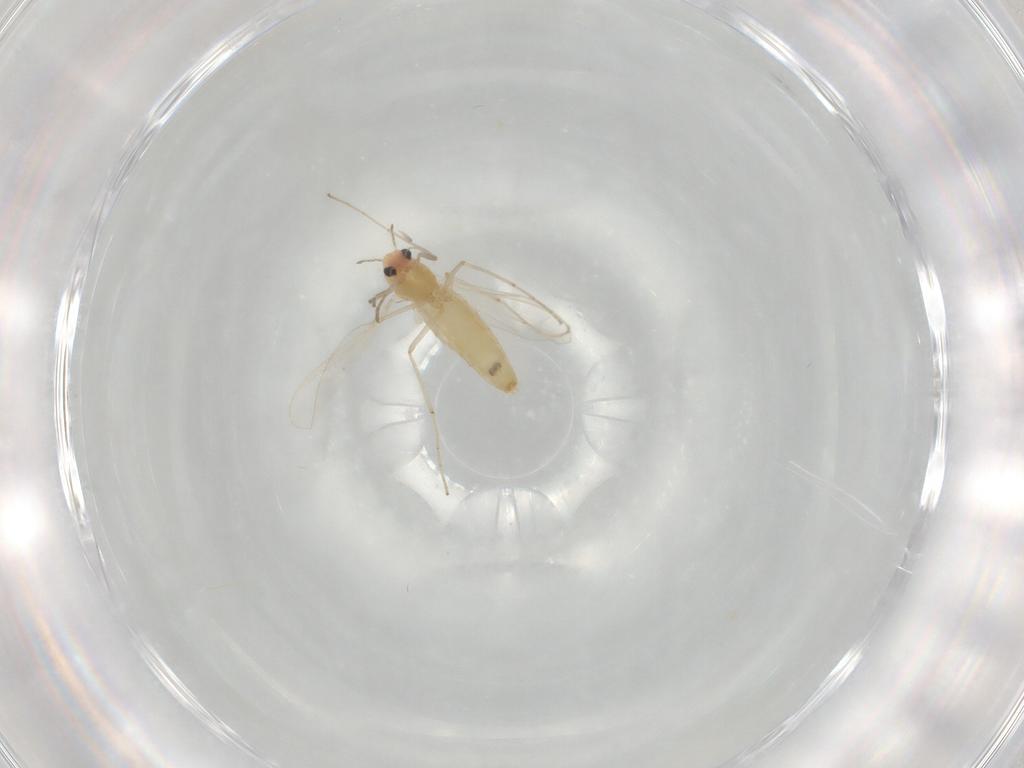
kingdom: Animalia
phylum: Arthropoda
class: Insecta
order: Diptera
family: Chironomidae
